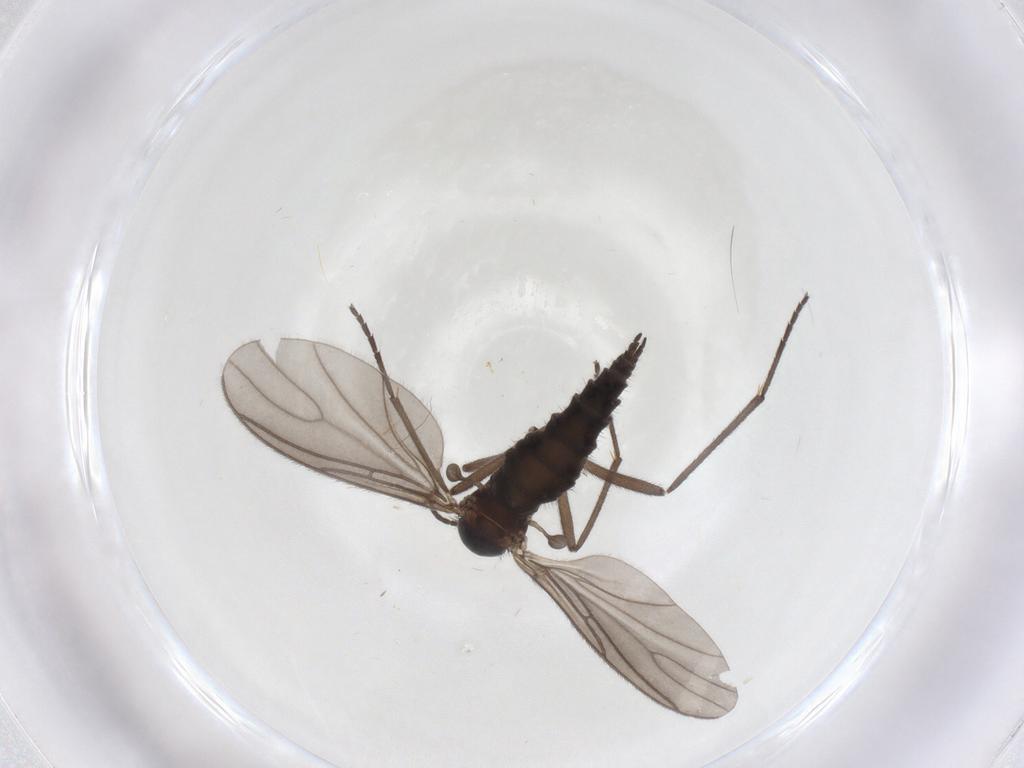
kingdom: Animalia
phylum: Arthropoda
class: Insecta
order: Diptera
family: Sciaridae
